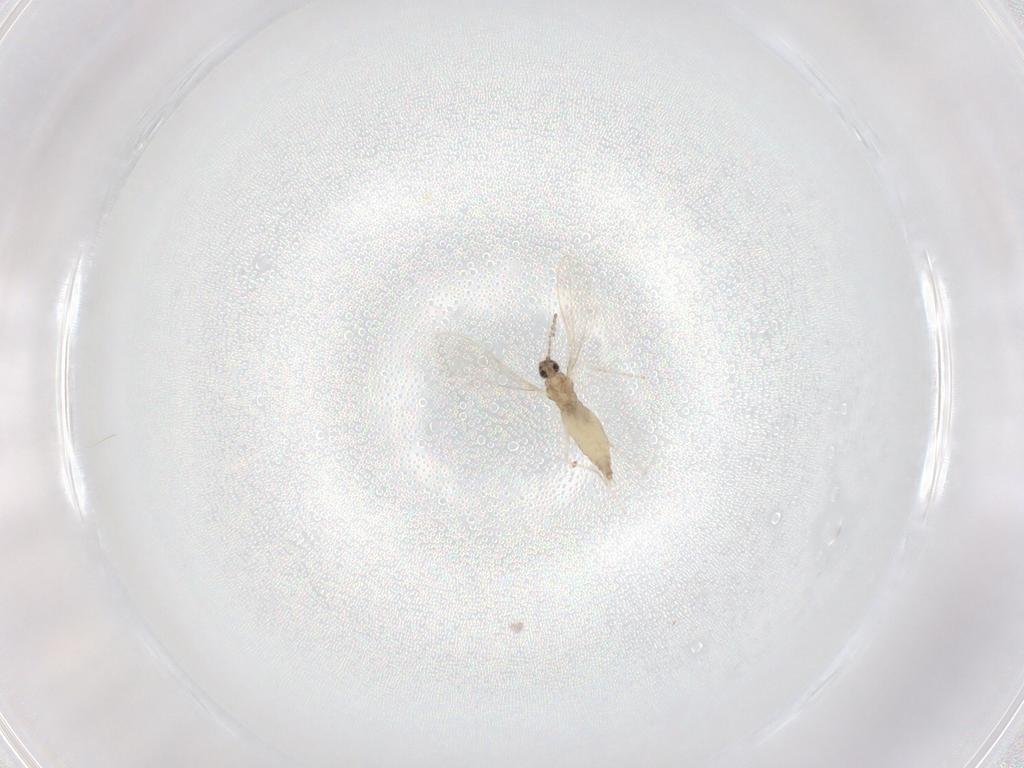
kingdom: Animalia
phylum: Arthropoda
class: Insecta
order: Diptera
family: Cecidomyiidae
